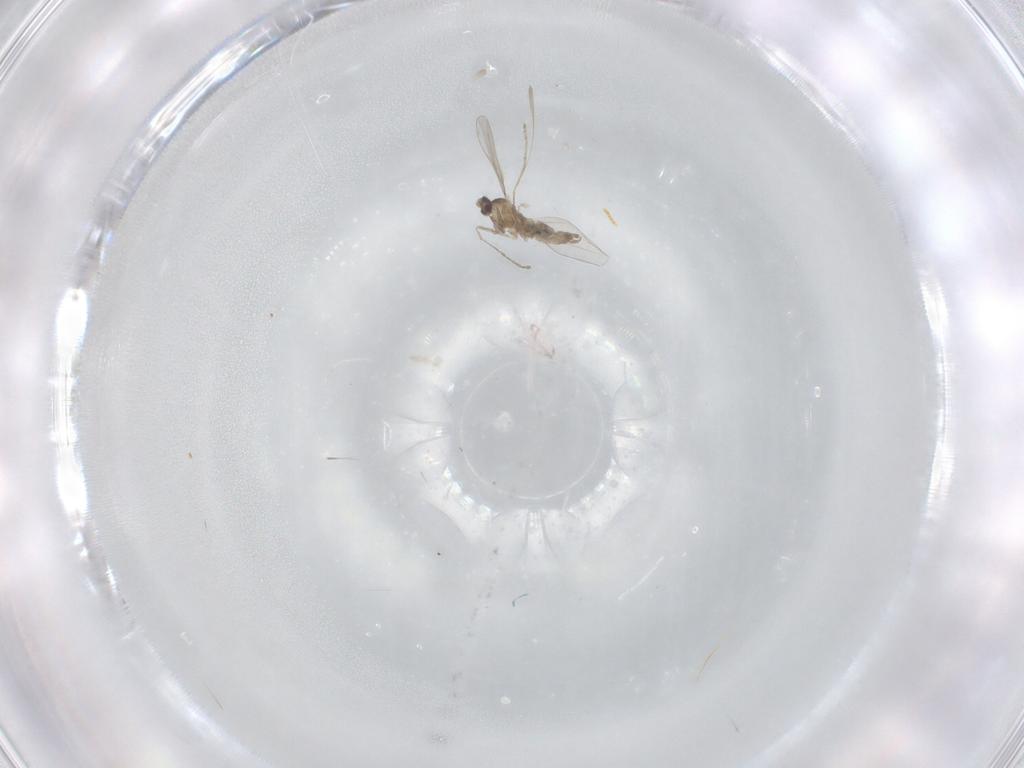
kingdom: Animalia
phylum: Arthropoda
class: Insecta
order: Diptera
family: Cecidomyiidae
